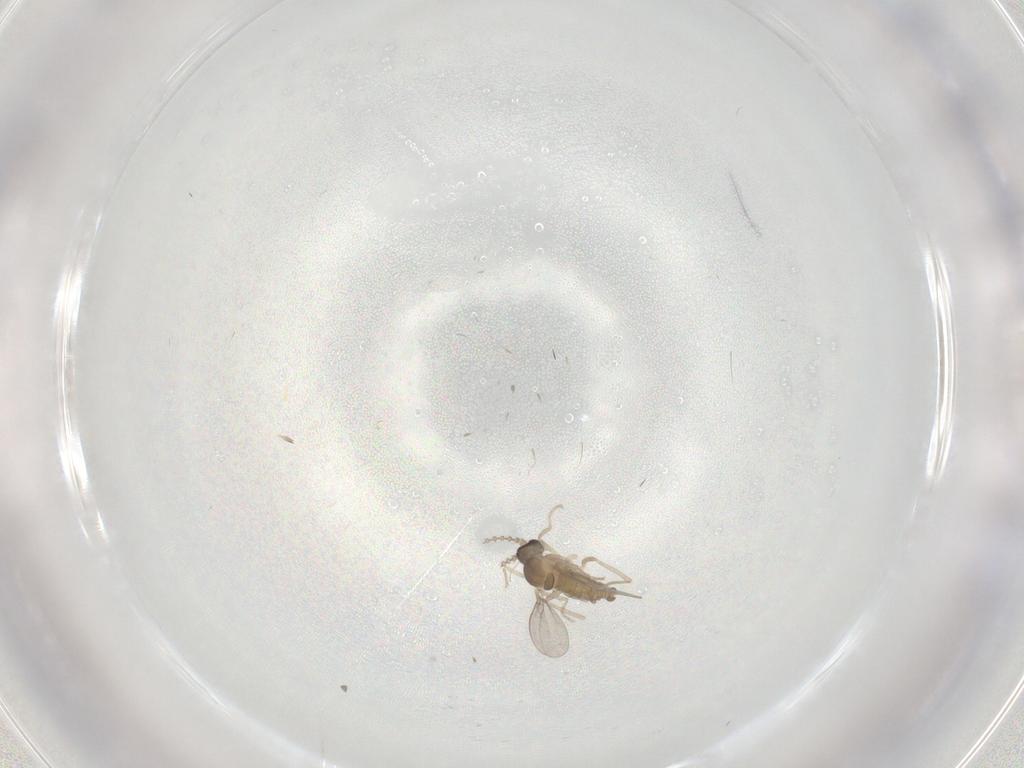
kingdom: Animalia
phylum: Arthropoda
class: Insecta
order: Diptera
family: Cecidomyiidae
